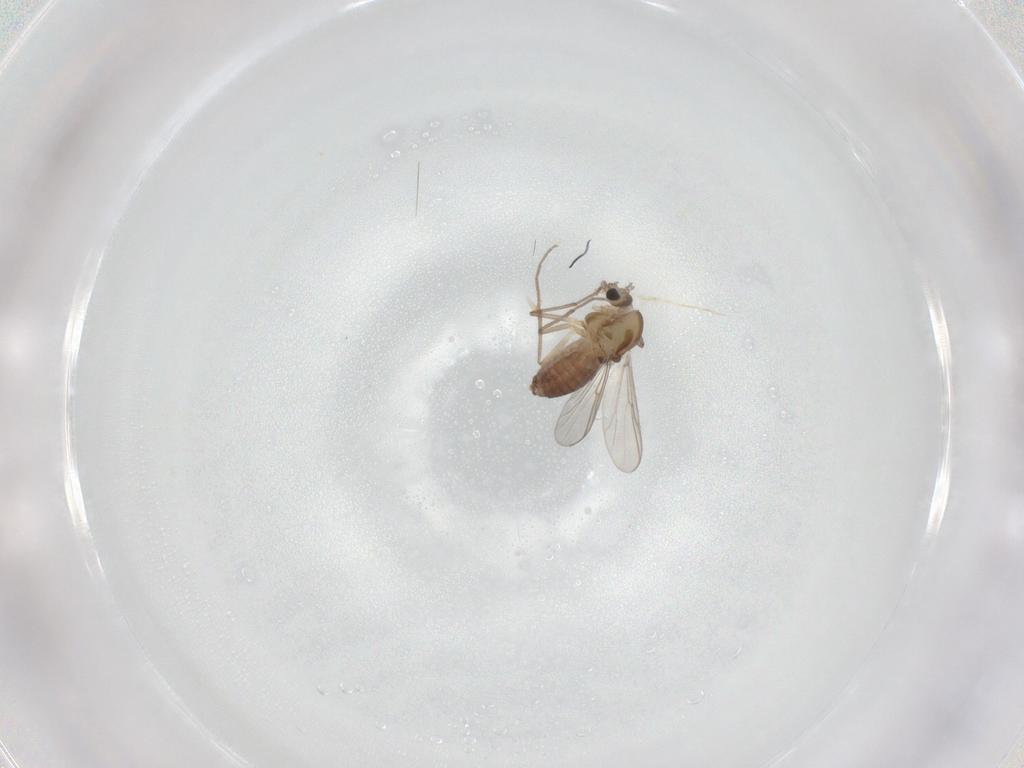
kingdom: Animalia
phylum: Arthropoda
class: Insecta
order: Diptera
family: Chironomidae
